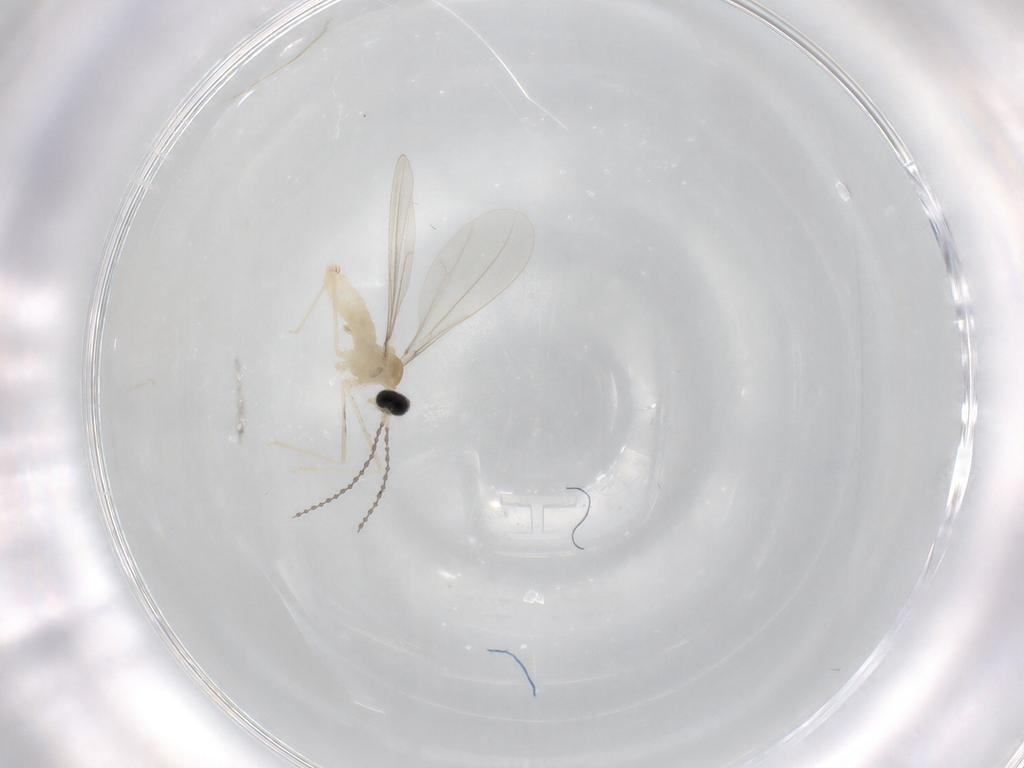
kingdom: Animalia
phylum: Arthropoda
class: Insecta
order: Diptera
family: Cecidomyiidae
